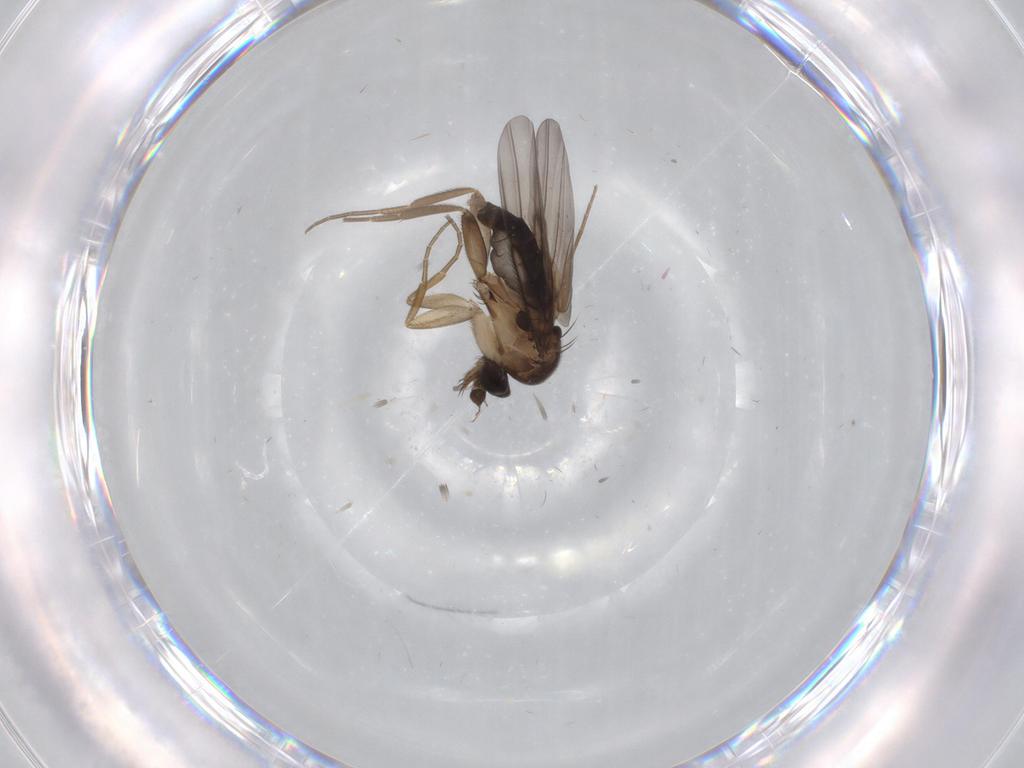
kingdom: Animalia
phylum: Arthropoda
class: Insecta
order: Diptera
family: Phoridae
